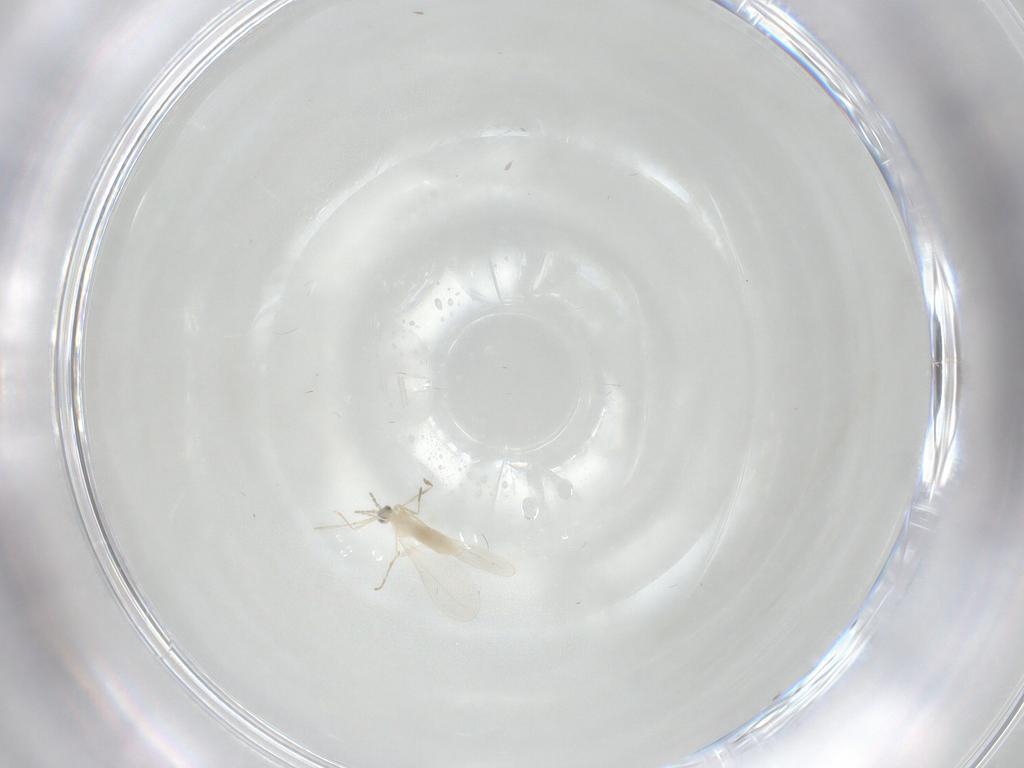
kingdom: Animalia
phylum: Arthropoda
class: Insecta
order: Diptera
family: Cecidomyiidae
